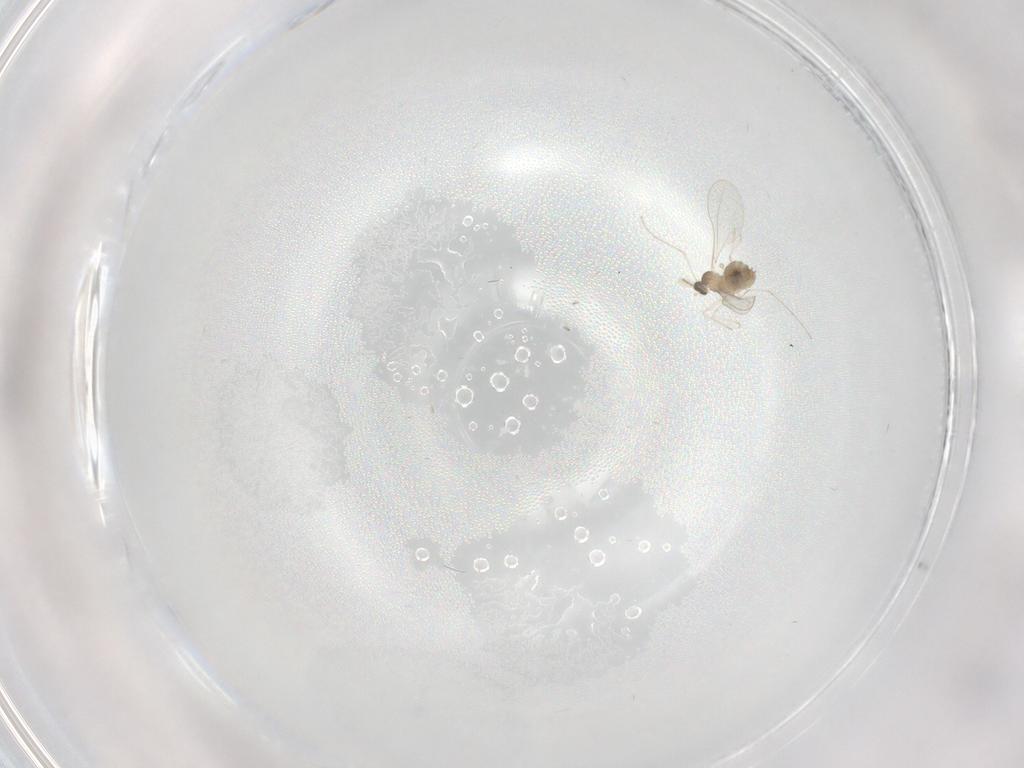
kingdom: Animalia
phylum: Arthropoda
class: Insecta
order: Diptera
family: Cecidomyiidae
